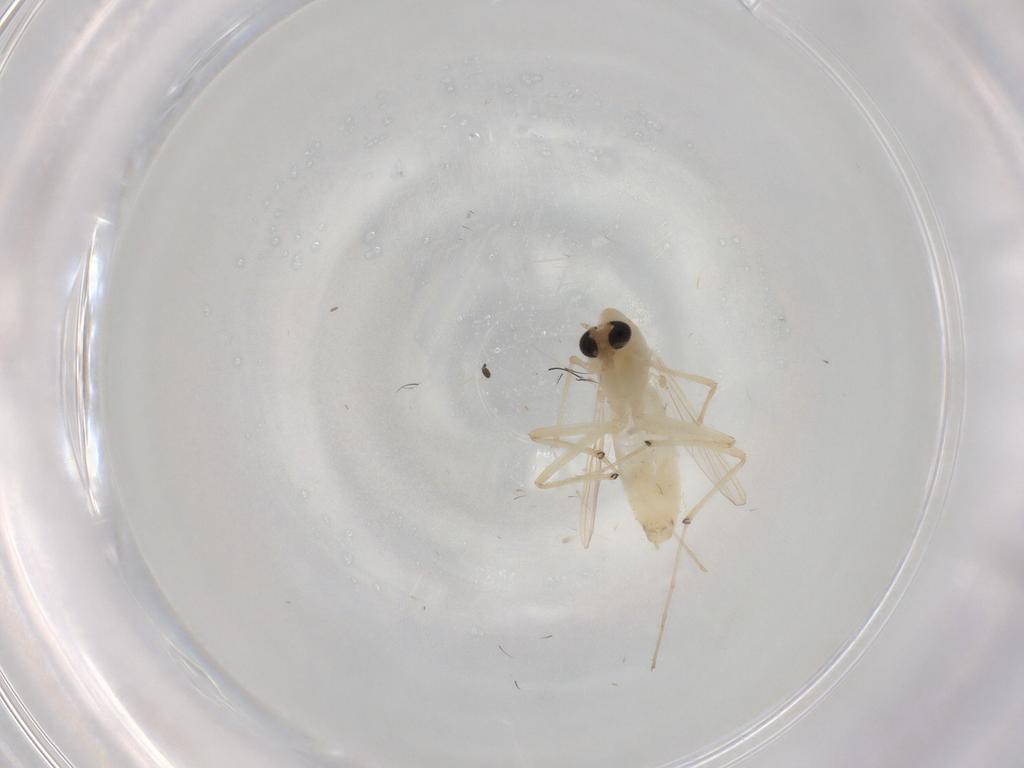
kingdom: Animalia
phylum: Arthropoda
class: Insecta
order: Diptera
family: Chironomidae
